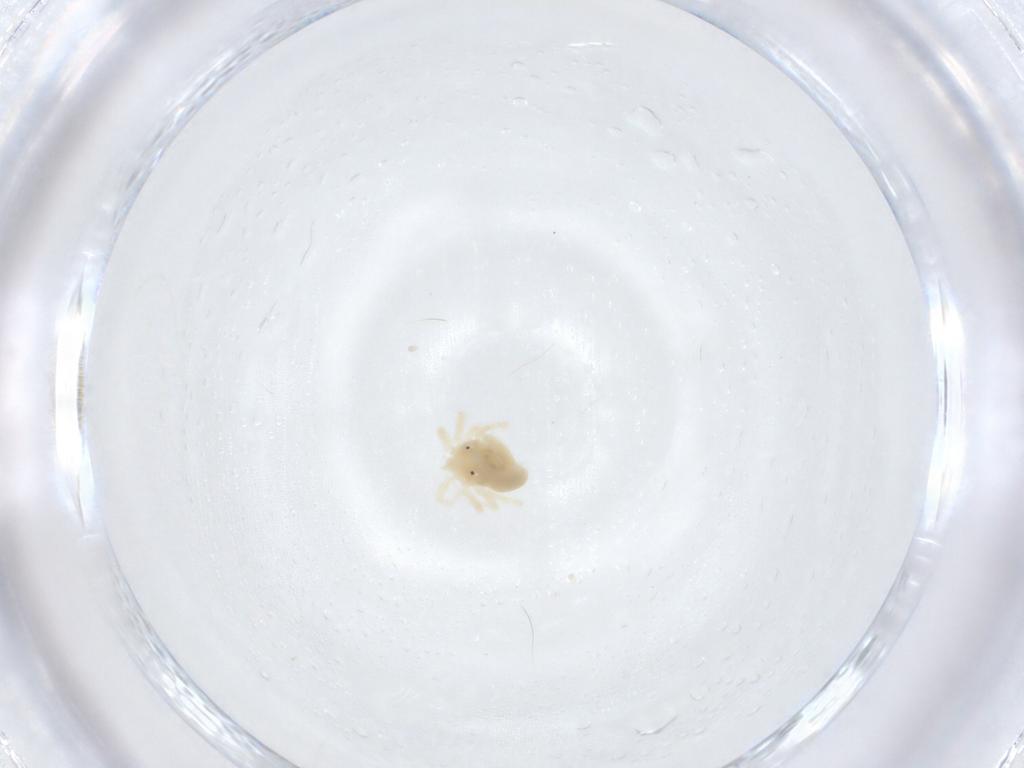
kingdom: Animalia
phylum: Arthropoda
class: Arachnida
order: Trombidiformes
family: Anystidae
